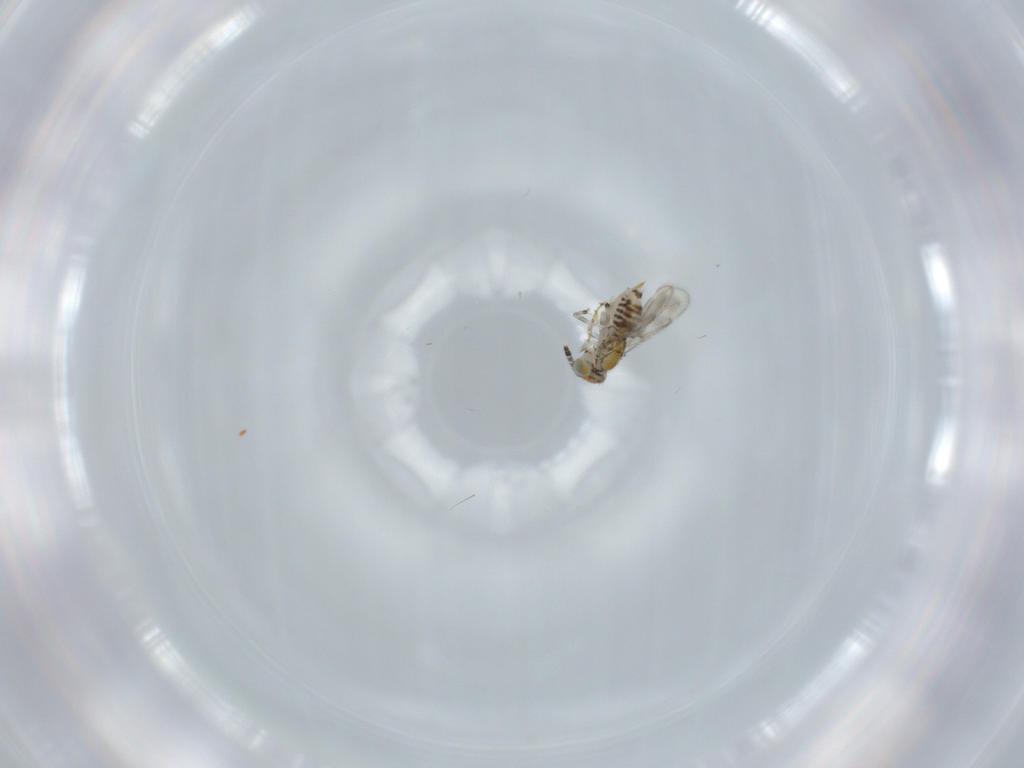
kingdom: Animalia
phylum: Arthropoda
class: Insecta
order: Hymenoptera
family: Aphelinidae
